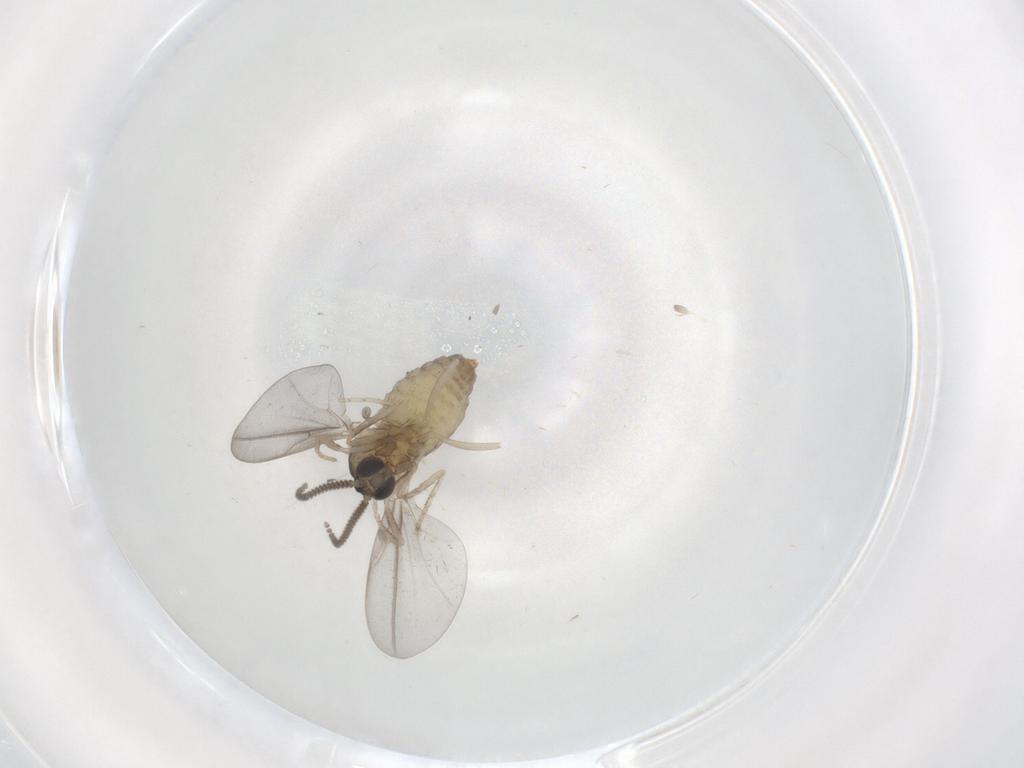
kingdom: Animalia
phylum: Arthropoda
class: Insecta
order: Diptera
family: Cecidomyiidae
